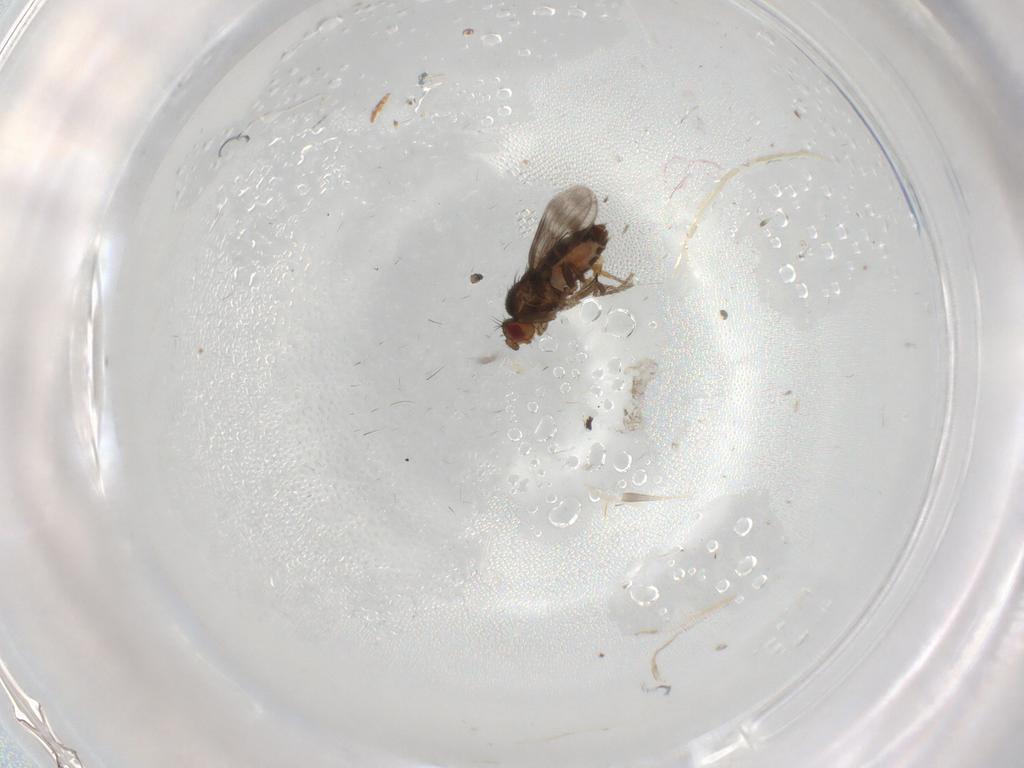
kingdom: Animalia
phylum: Arthropoda
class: Insecta
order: Diptera
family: Sphaeroceridae
